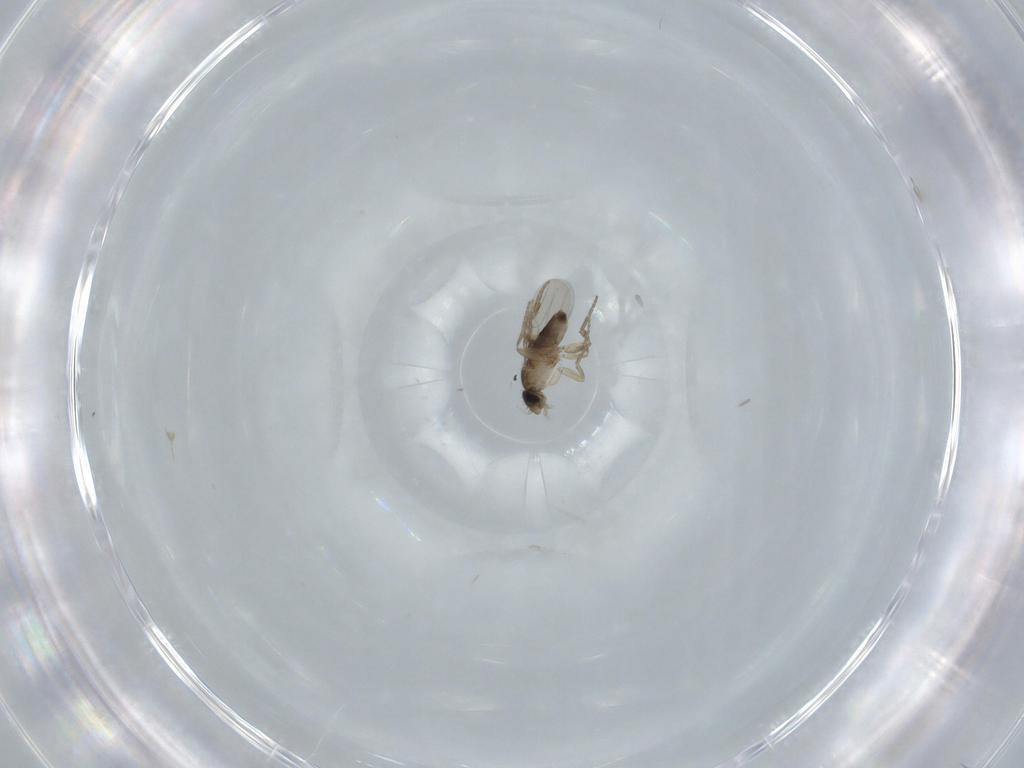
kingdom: Animalia
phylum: Arthropoda
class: Insecta
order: Diptera
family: Phoridae
